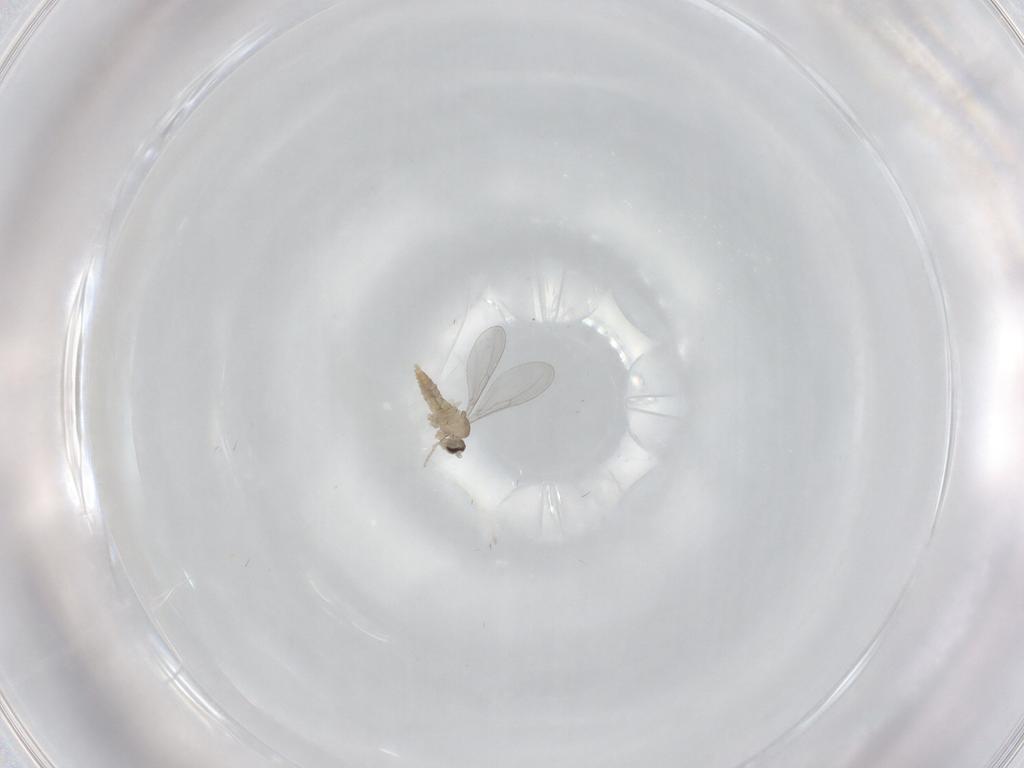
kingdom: Animalia
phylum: Arthropoda
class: Insecta
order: Diptera
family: Cecidomyiidae
